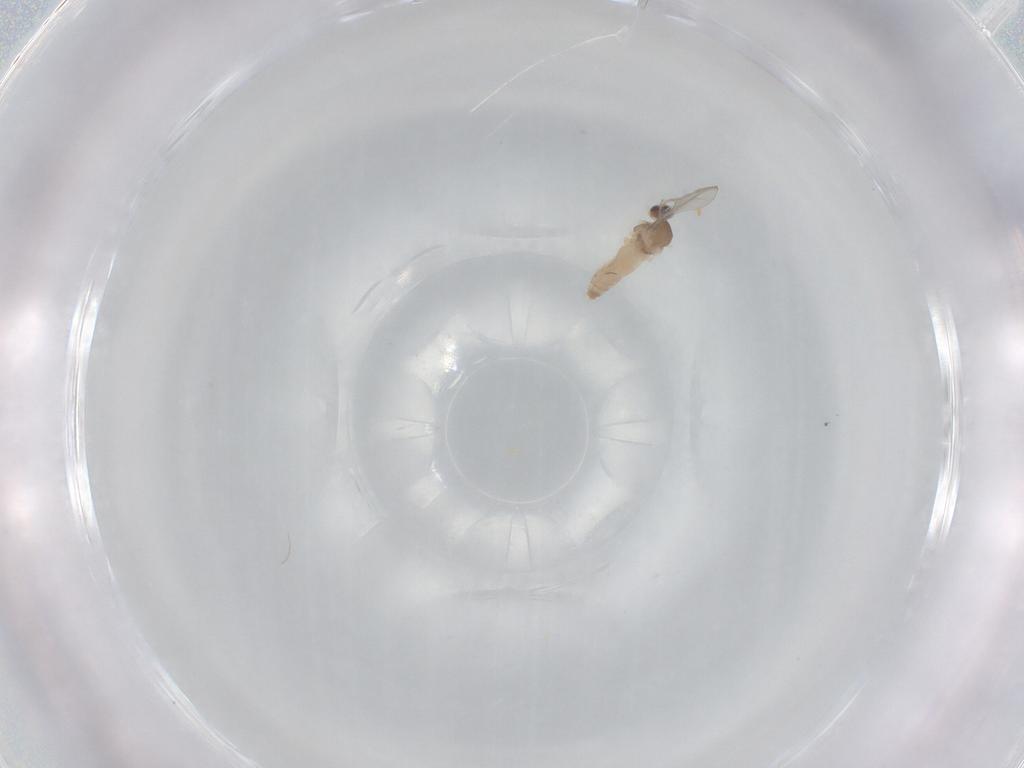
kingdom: Animalia
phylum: Arthropoda
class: Insecta
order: Diptera
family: Cecidomyiidae
